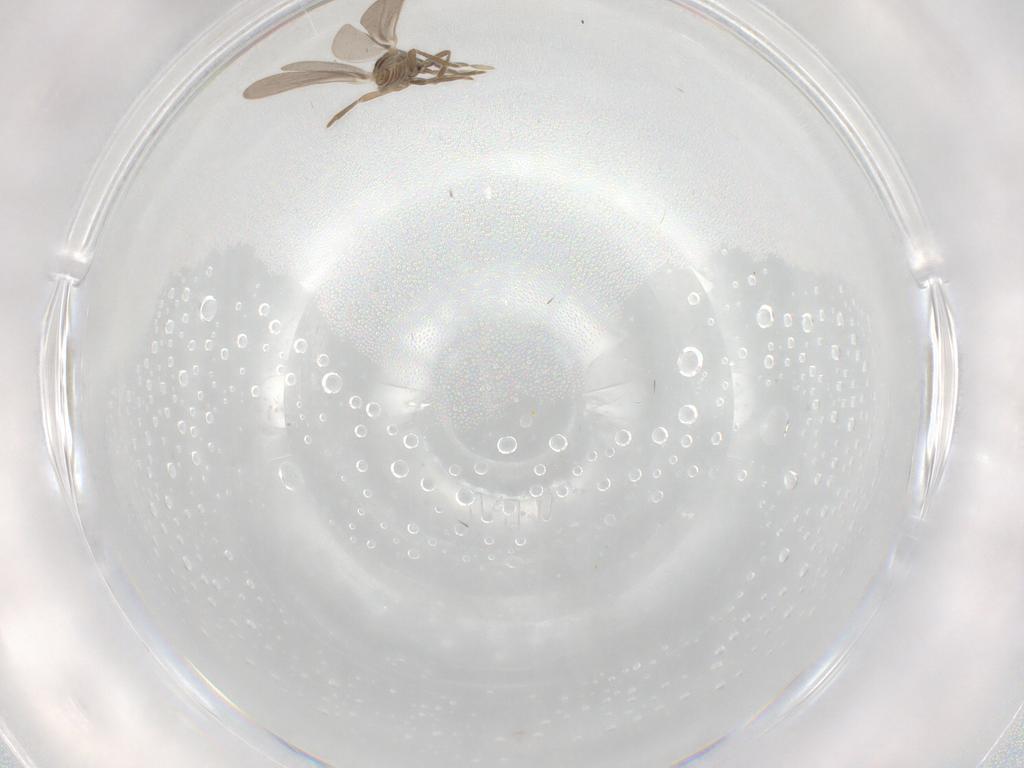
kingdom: Animalia
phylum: Arthropoda
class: Insecta
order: Hemiptera
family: Enicocephalidae
